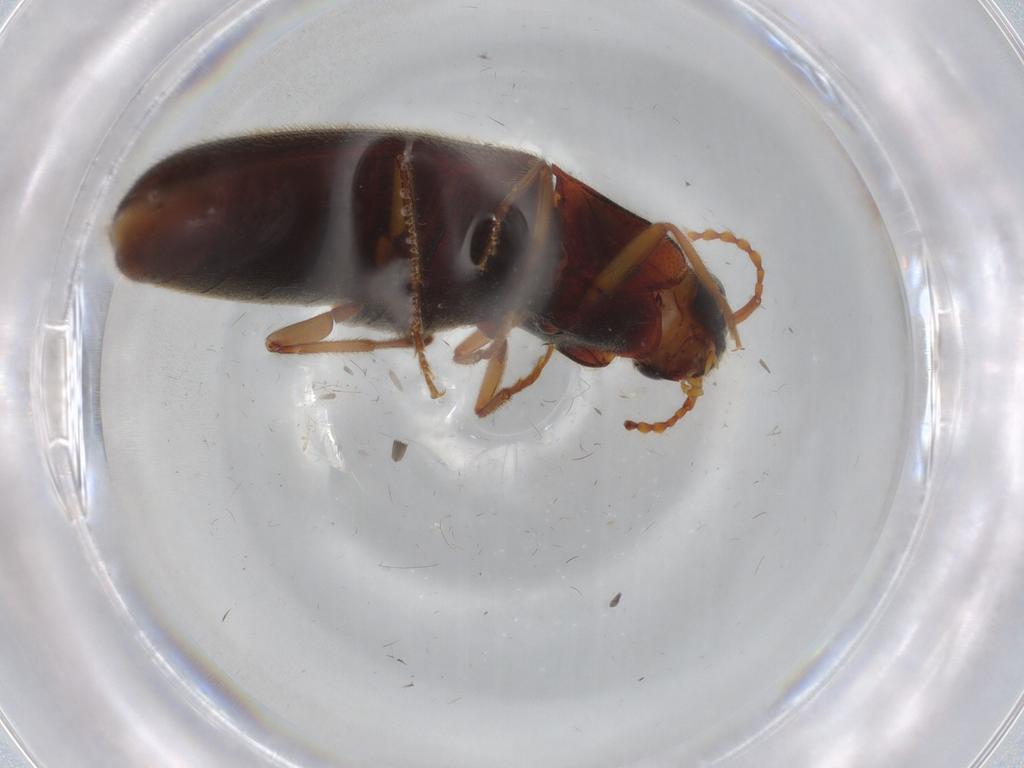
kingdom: Animalia
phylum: Arthropoda
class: Insecta
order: Coleoptera
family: Elateridae
